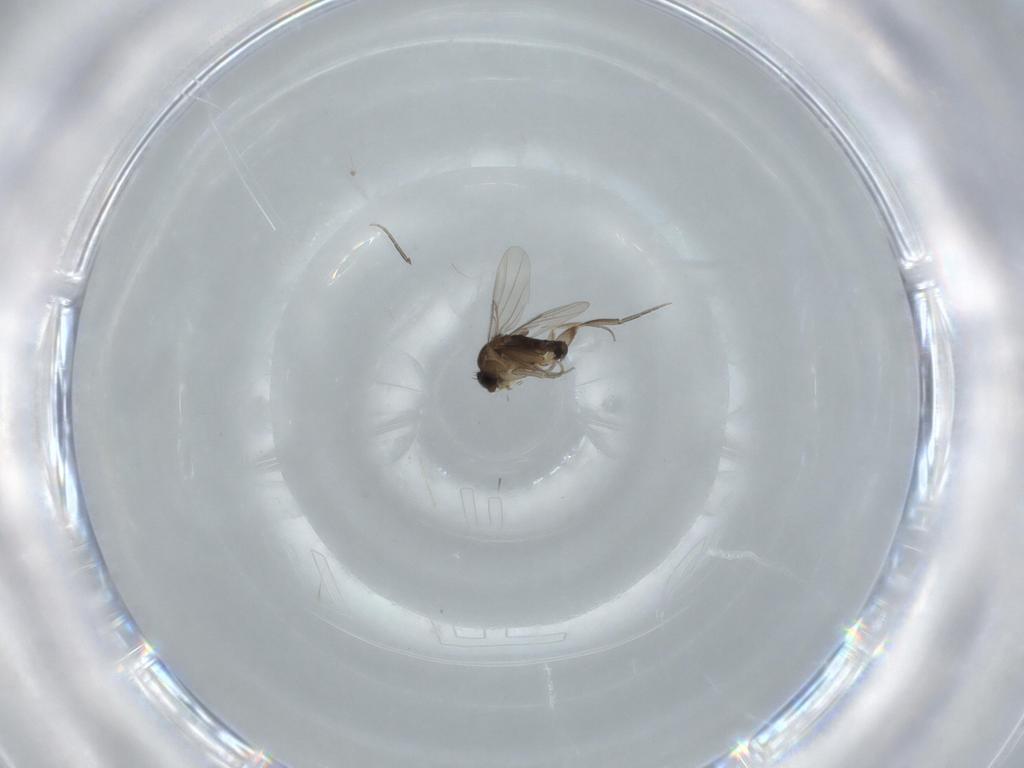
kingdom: Animalia
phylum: Arthropoda
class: Insecta
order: Diptera
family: Phoridae
